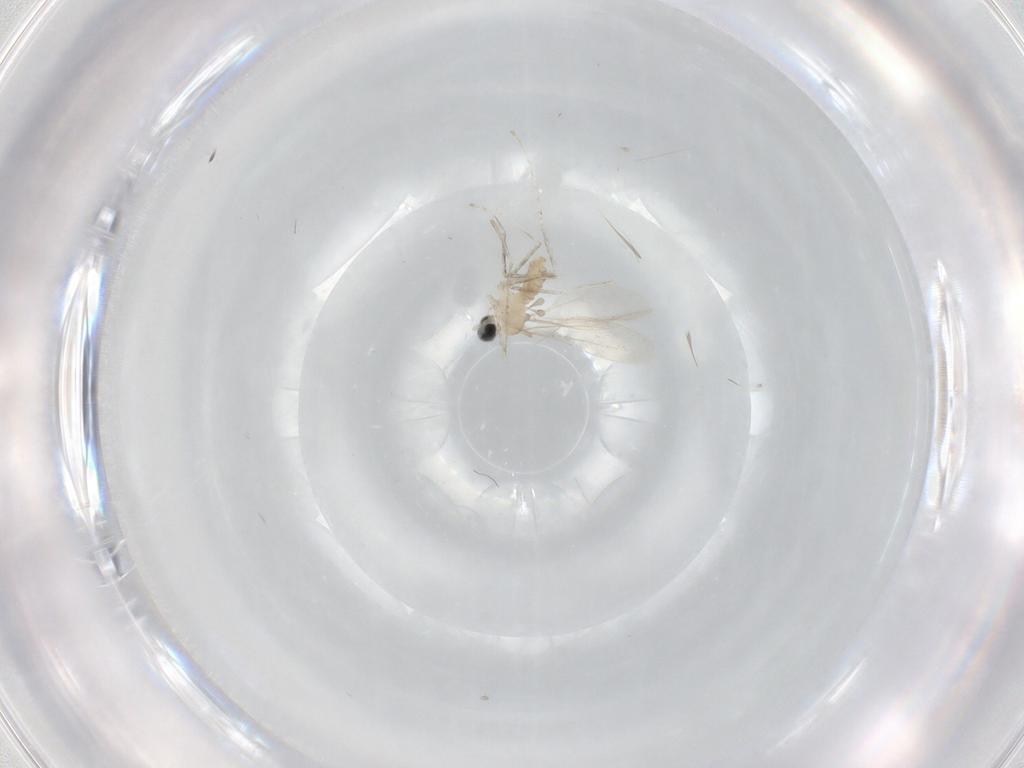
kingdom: Animalia
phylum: Arthropoda
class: Insecta
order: Diptera
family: Cecidomyiidae
